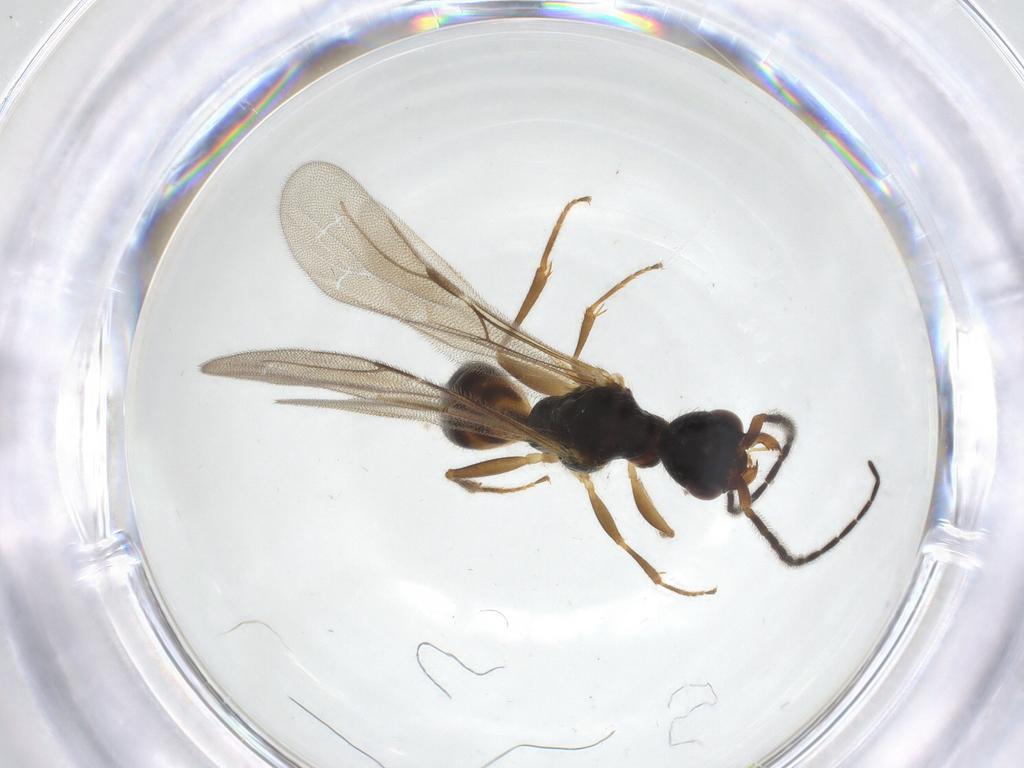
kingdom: Animalia
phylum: Arthropoda
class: Insecta
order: Hymenoptera
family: Bethylidae
